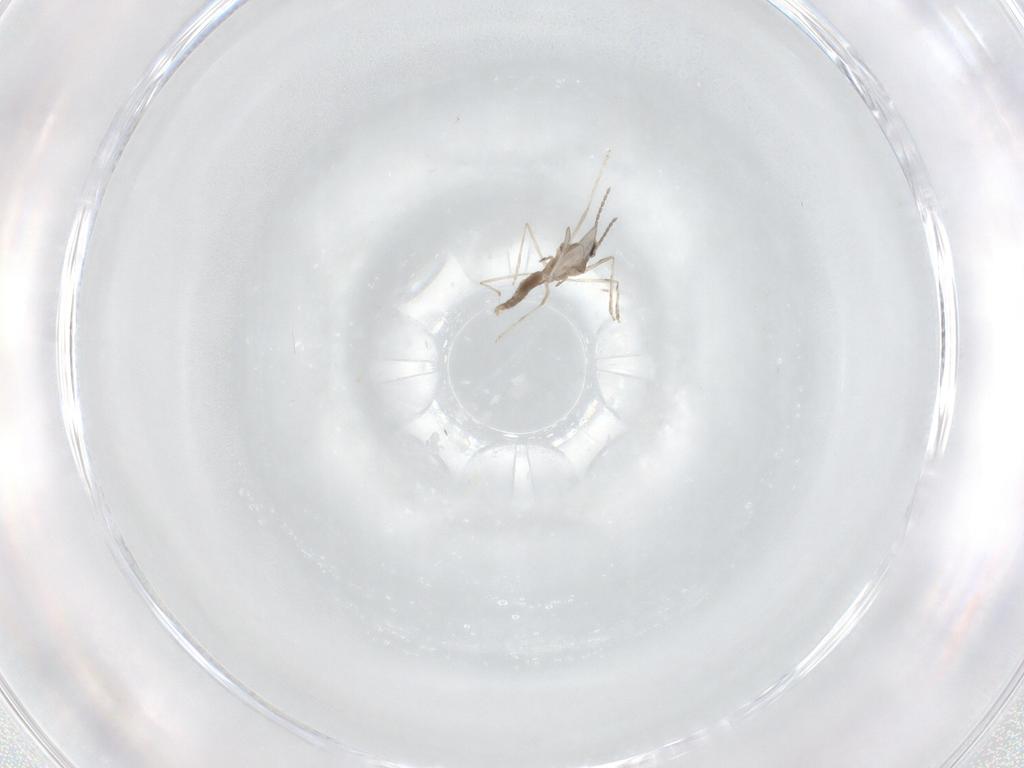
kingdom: Animalia
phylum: Arthropoda
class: Insecta
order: Diptera
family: Cecidomyiidae
